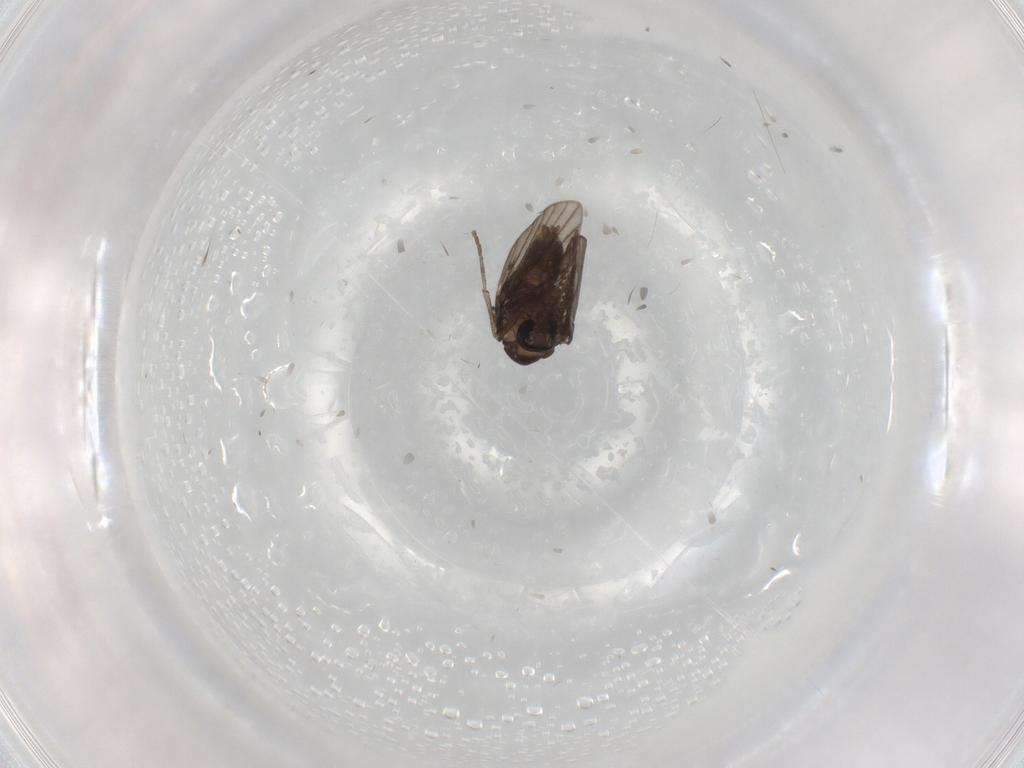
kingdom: Animalia
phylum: Arthropoda
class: Insecta
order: Diptera
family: Psychodidae
